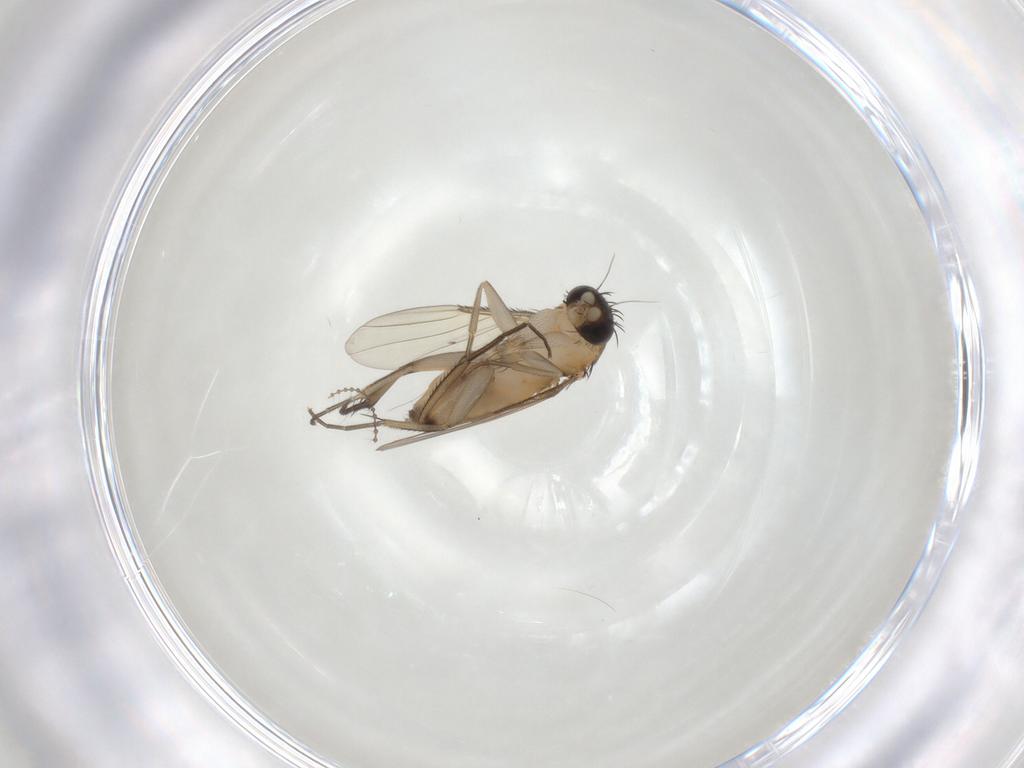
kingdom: Animalia
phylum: Arthropoda
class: Insecta
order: Diptera
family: Phoridae
